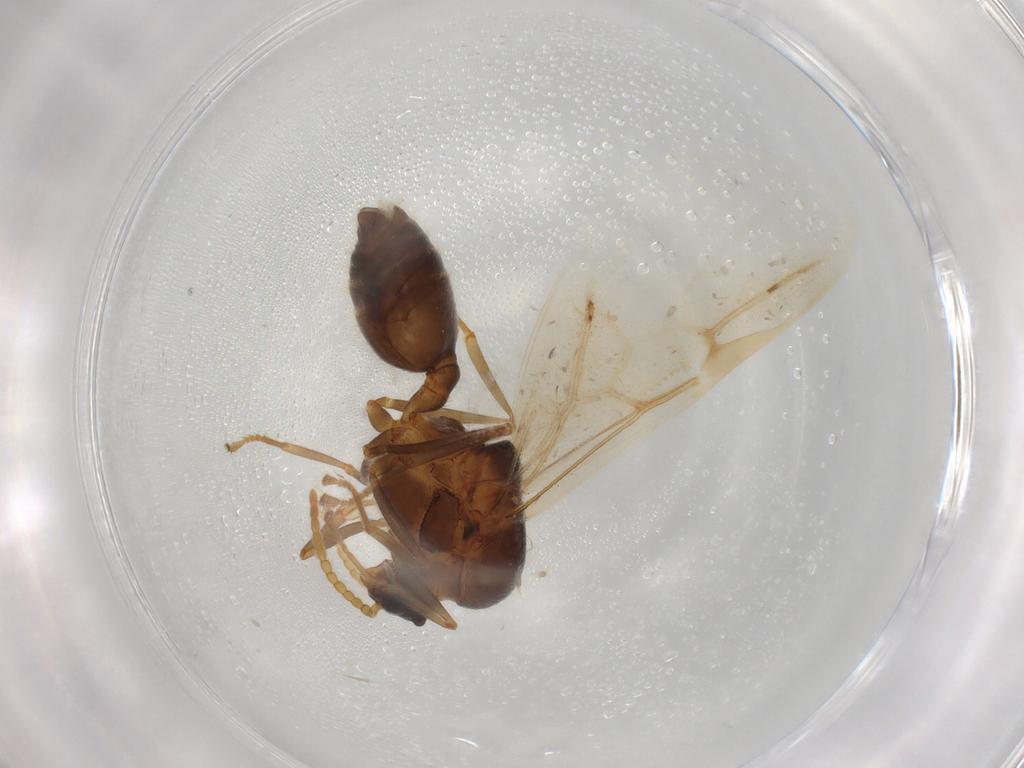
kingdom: Animalia
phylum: Arthropoda
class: Insecta
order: Hymenoptera
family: Formicidae
